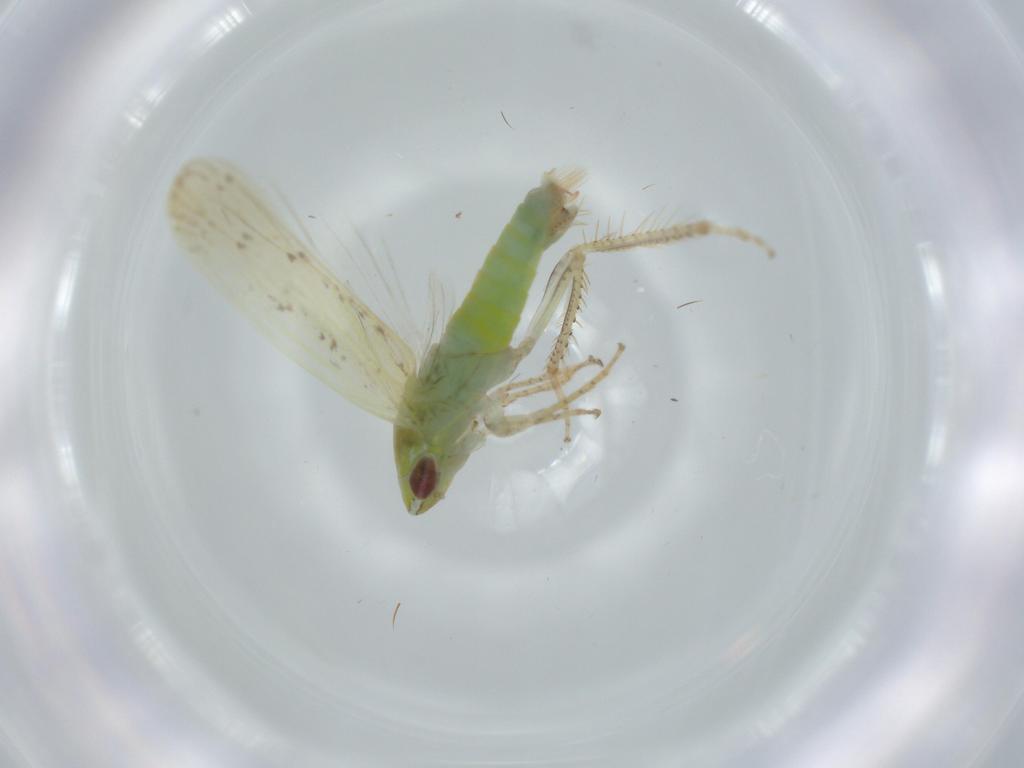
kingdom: Animalia
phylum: Arthropoda
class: Insecta
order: Hemiptera
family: Cicadellidae
